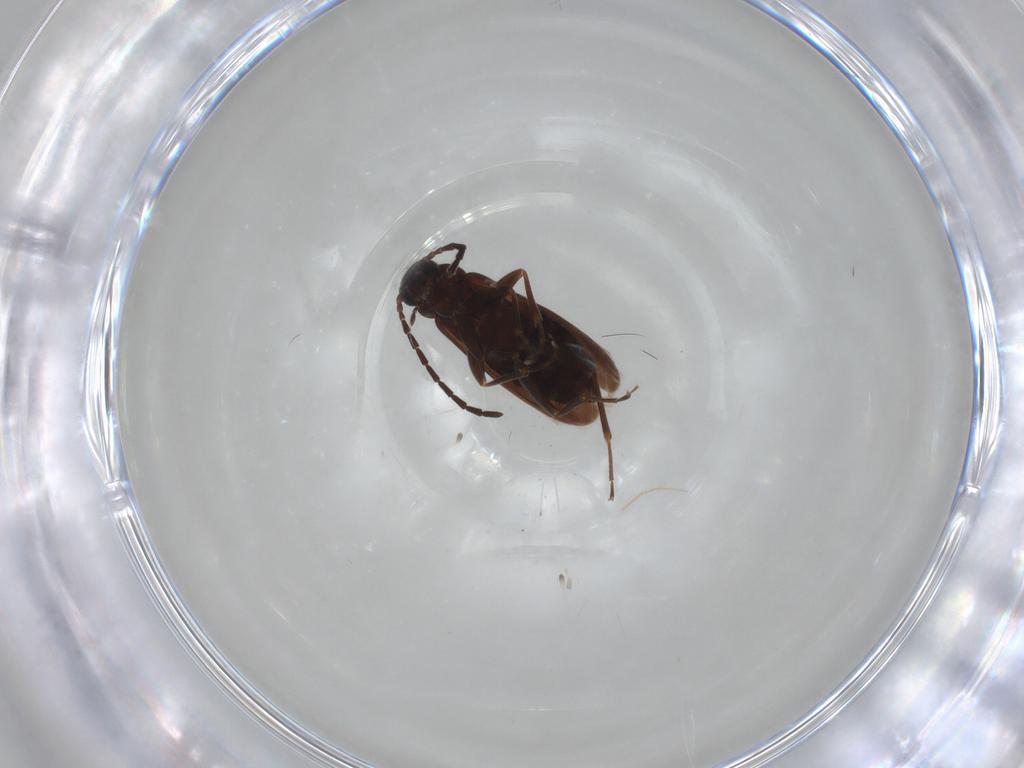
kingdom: Animalia
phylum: Arthropoda
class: Insecta
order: Coleoptera
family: Scraptiidae
